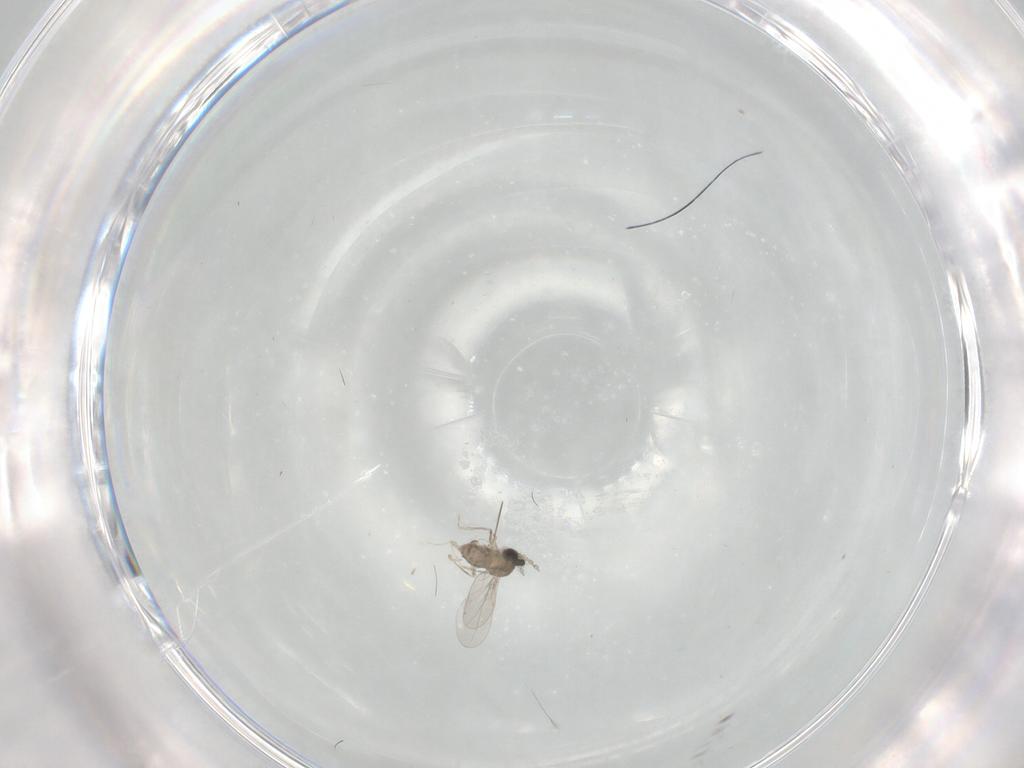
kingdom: Animalia
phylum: Arthropoda
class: Insecta
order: Diptera
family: Cecidomyiidae
